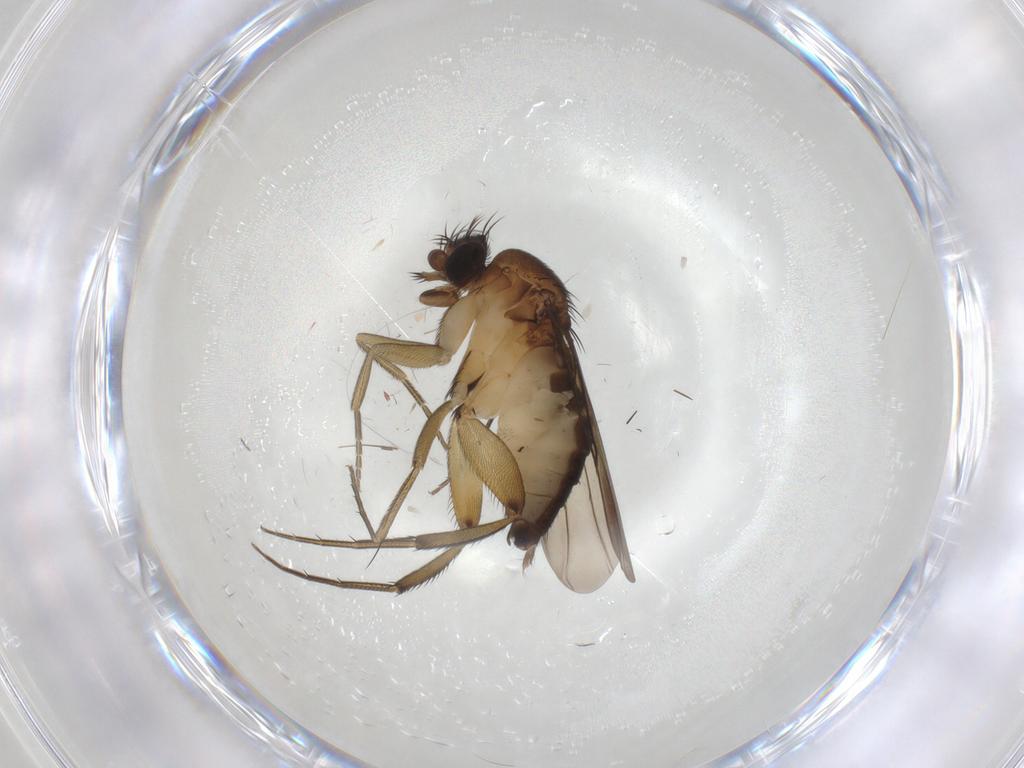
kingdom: Animalia
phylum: Arthropoda
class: Insecta
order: Diptera
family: Phoridae
